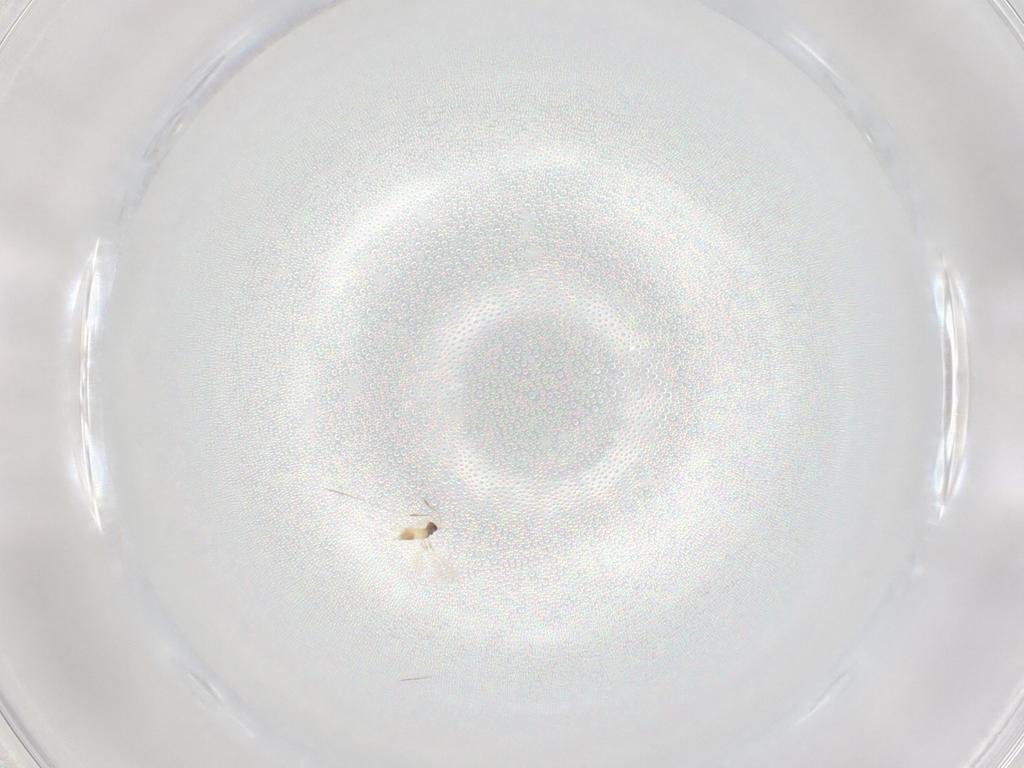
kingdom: Animalia
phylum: Arthropoda
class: Insecta
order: Hymenoptera
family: Mymaridae
